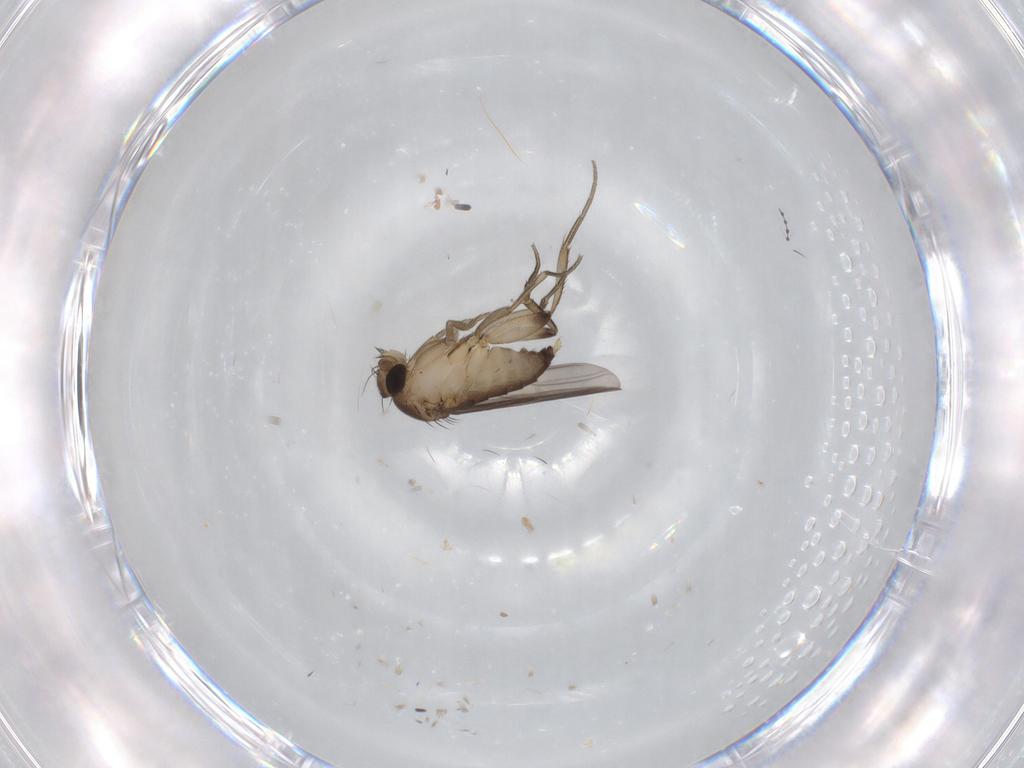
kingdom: Animalia
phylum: Arthropoda
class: Insecta
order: Diptera
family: Phoridae
